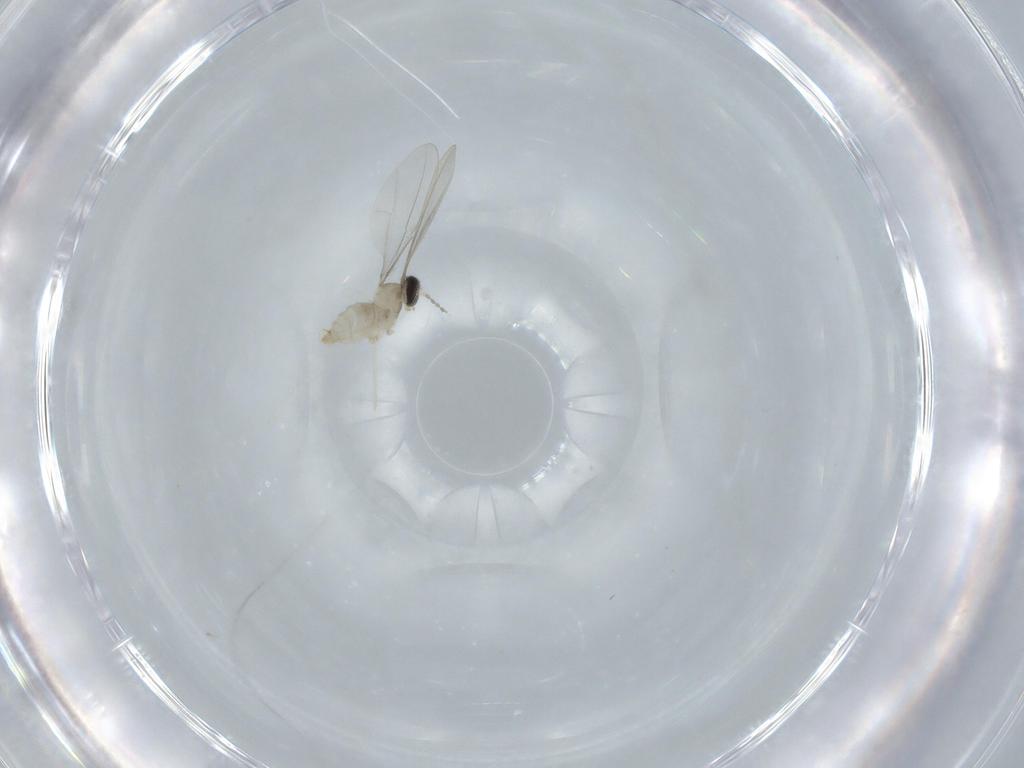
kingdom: Animalia
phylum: Arthropoda
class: Insecta
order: Diptera
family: Cecidomyiidae
